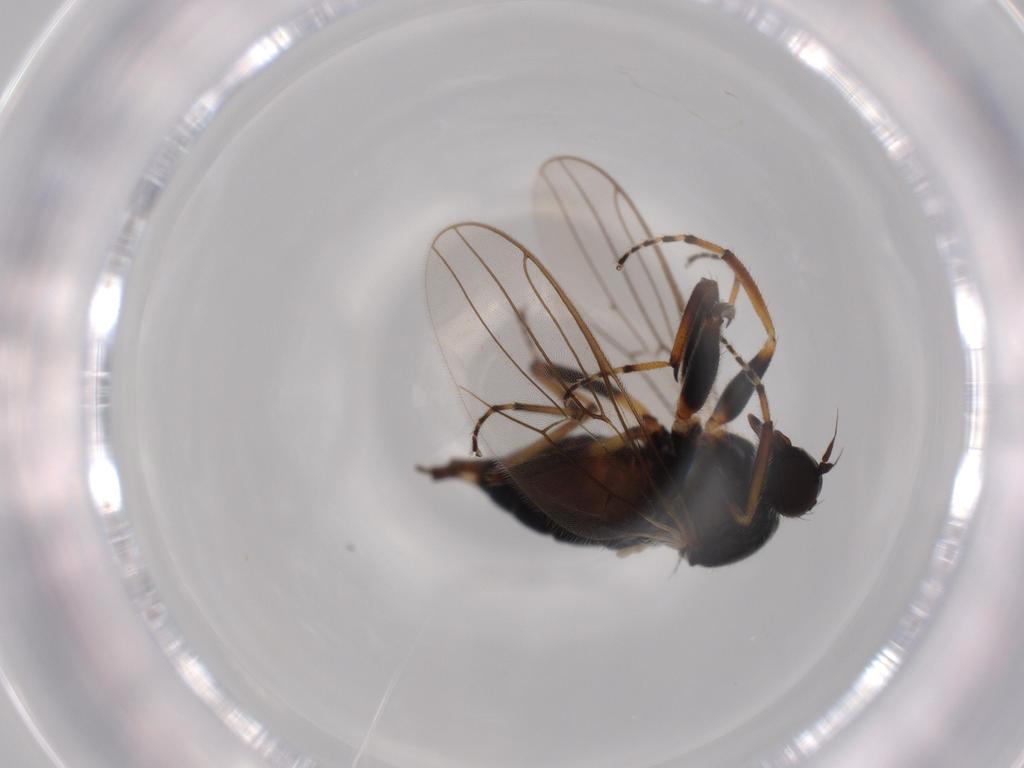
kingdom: Animalia
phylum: Arthropoda
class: Insecta
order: Diptera
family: Hybotidae
